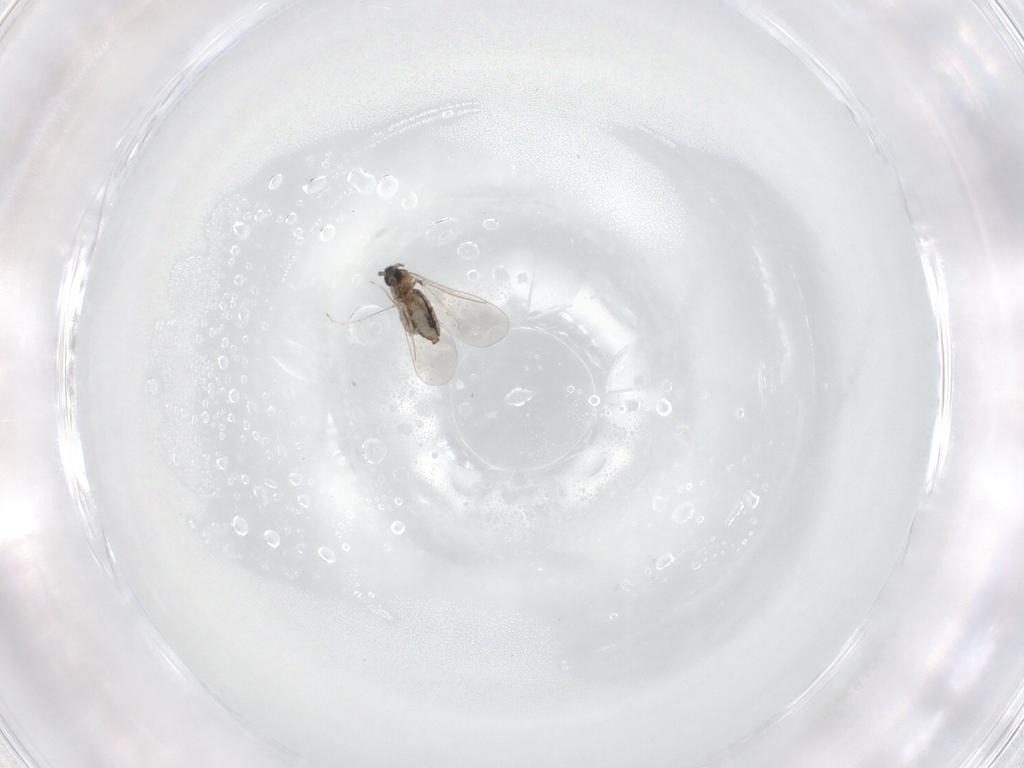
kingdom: Animalia
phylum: Arthropoda
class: Insecta
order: Diptera
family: Cecidomyiidae
